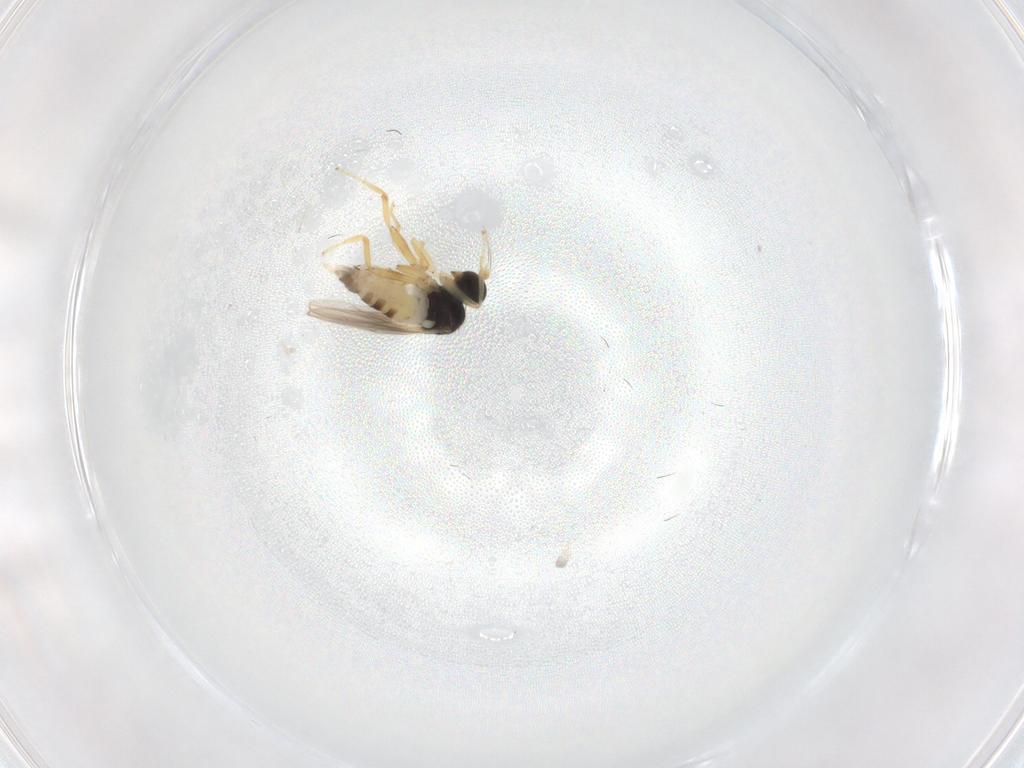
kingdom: Animalia
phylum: Arthropoda
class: Insecta
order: Diptera
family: Hybotidae
